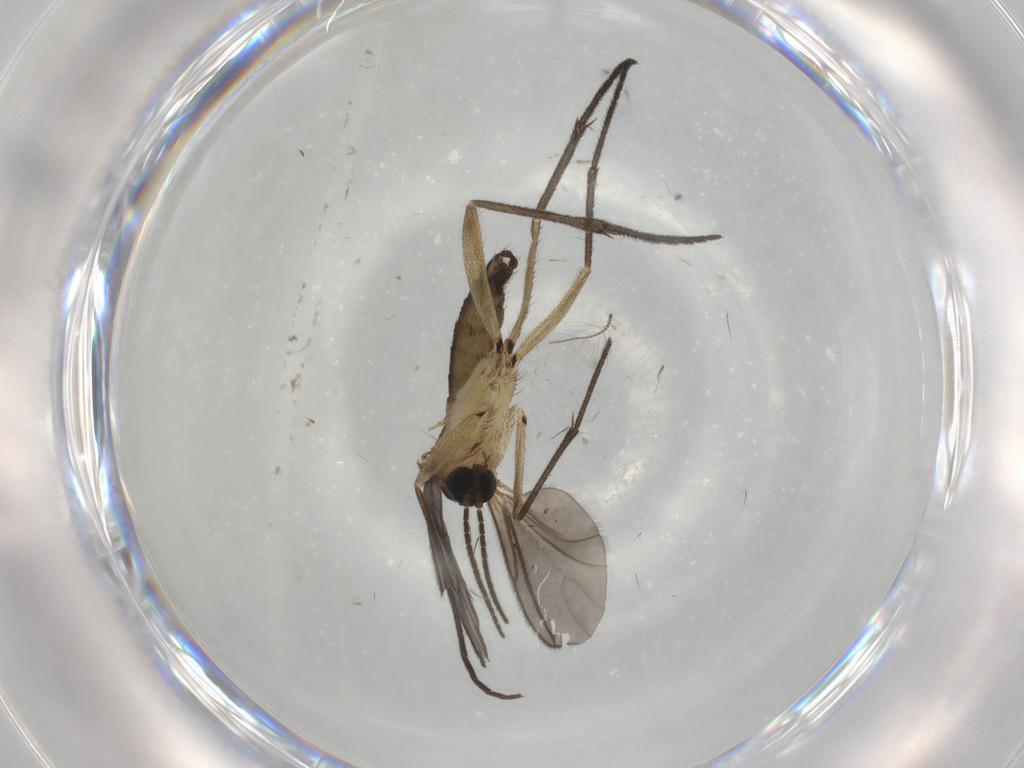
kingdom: Animalia
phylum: Arthropoda
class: Insecta
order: Diptera
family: Sciaridae
